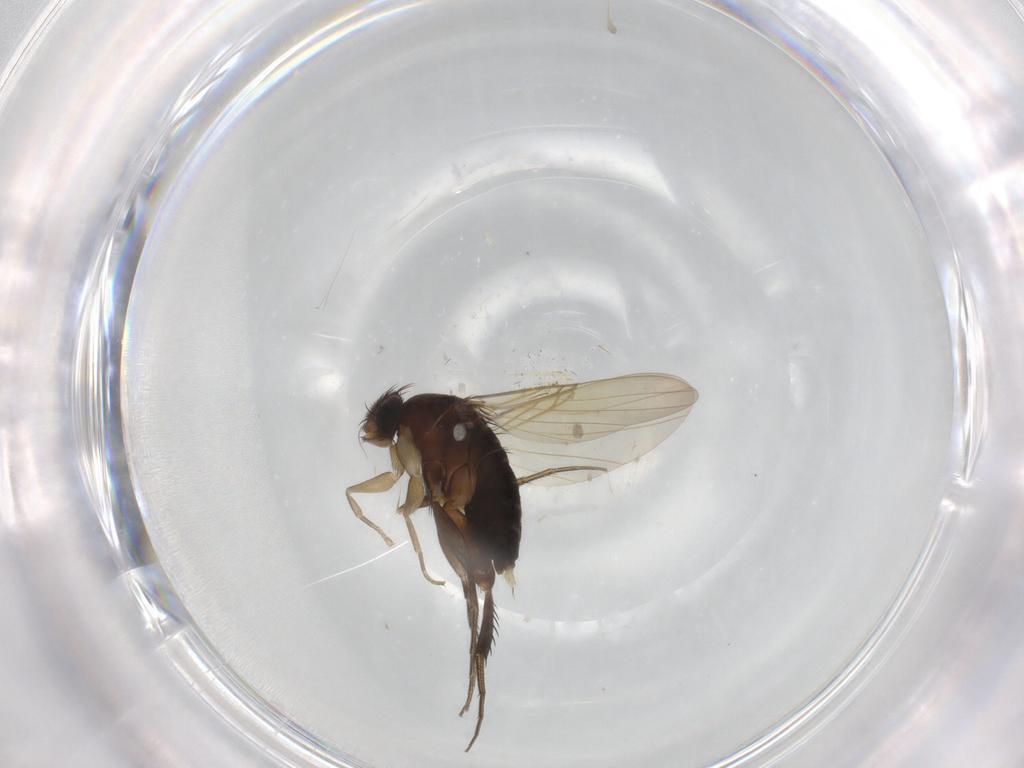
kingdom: Animalia
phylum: Arthropoda
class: Insecta
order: Diptera
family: Phoridae
